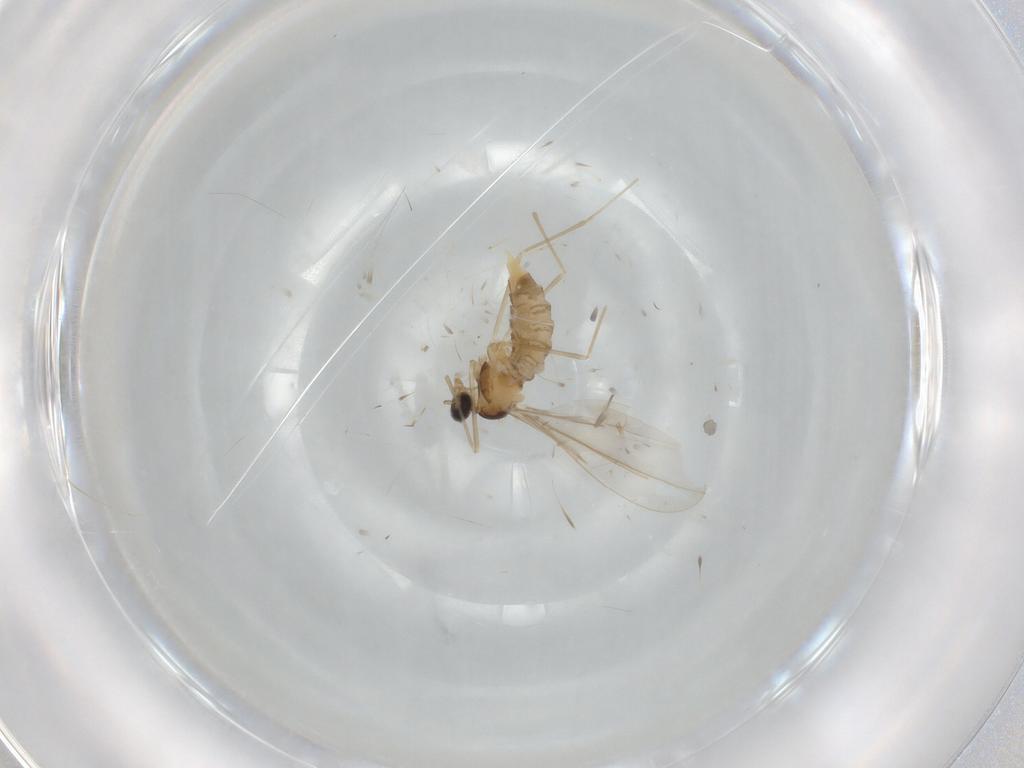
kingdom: Animalia
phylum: Arthropoda
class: Insecta
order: Diptera
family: Cecidomyiidae
